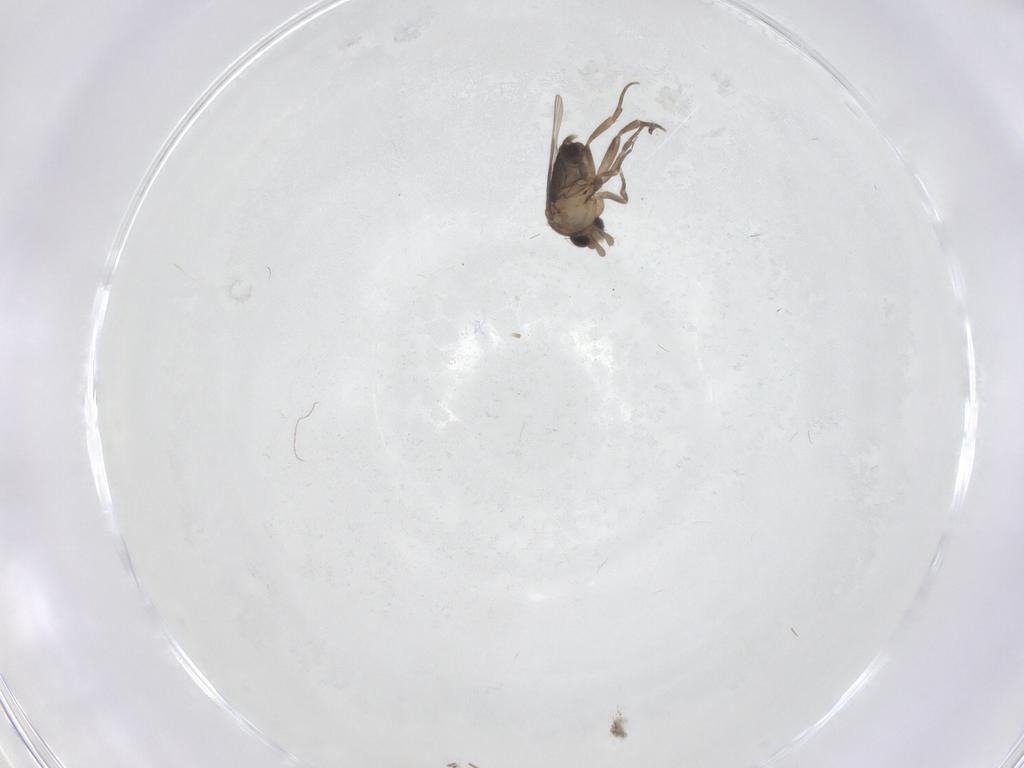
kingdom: Animalia
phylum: Arthropoda
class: Insecta
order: Diptera
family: Phoridae
